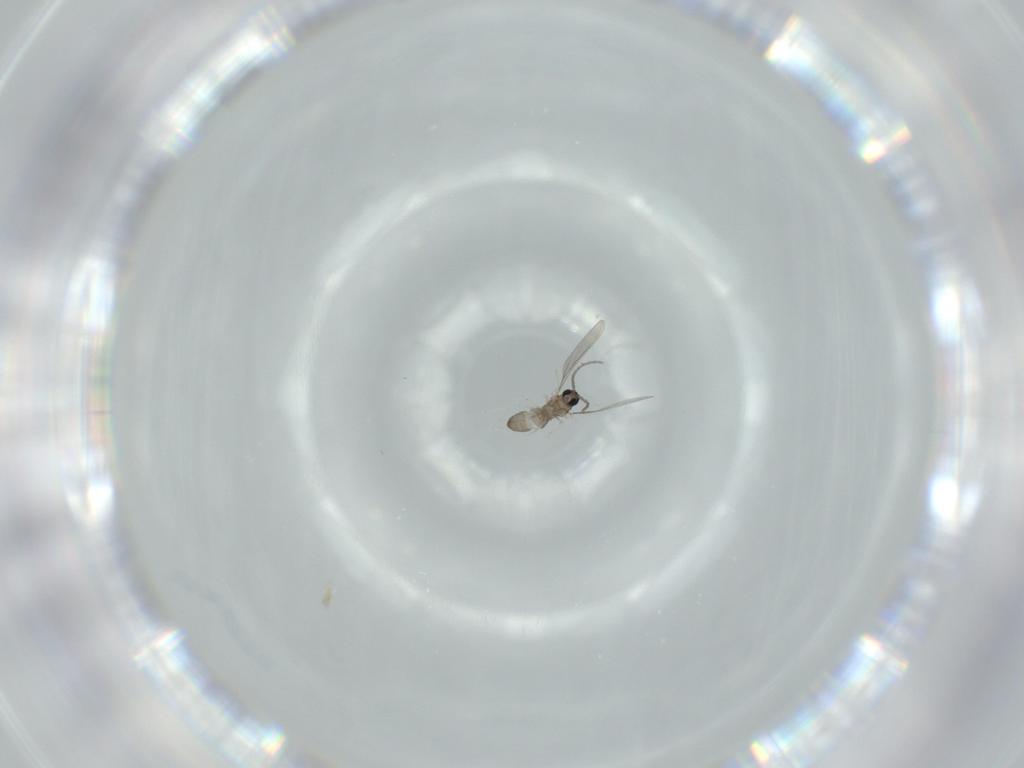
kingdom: Animalia
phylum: Arthropoda
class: Insecta
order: Diptera
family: Cecidomyiidae
